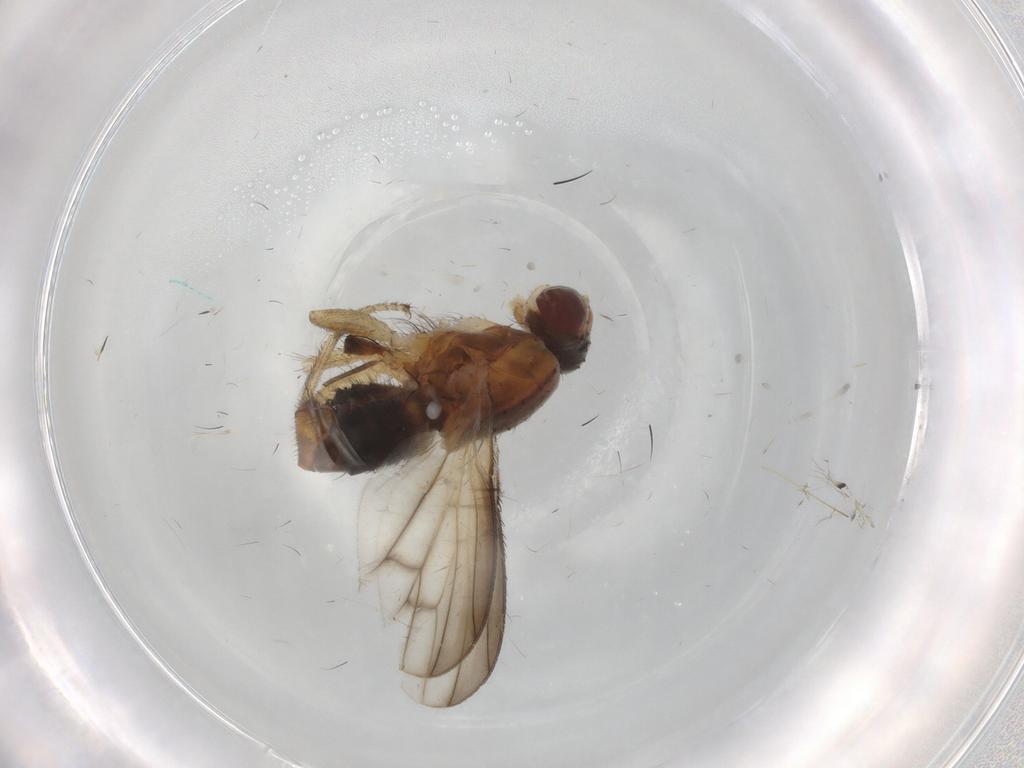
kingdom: Animalia
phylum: Arthropoda
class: Insecta
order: Diptera
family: Heleomyzidae
